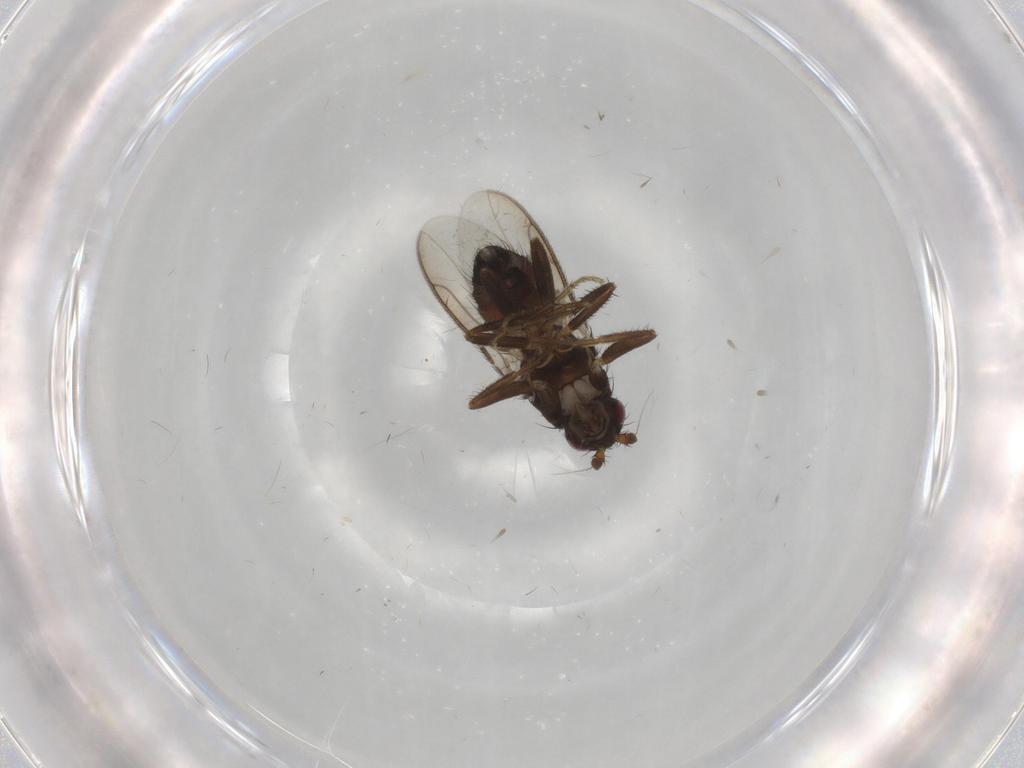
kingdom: Animalia
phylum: Arthropoda
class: Insecta
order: Diptera
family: Sphaeroceridae
